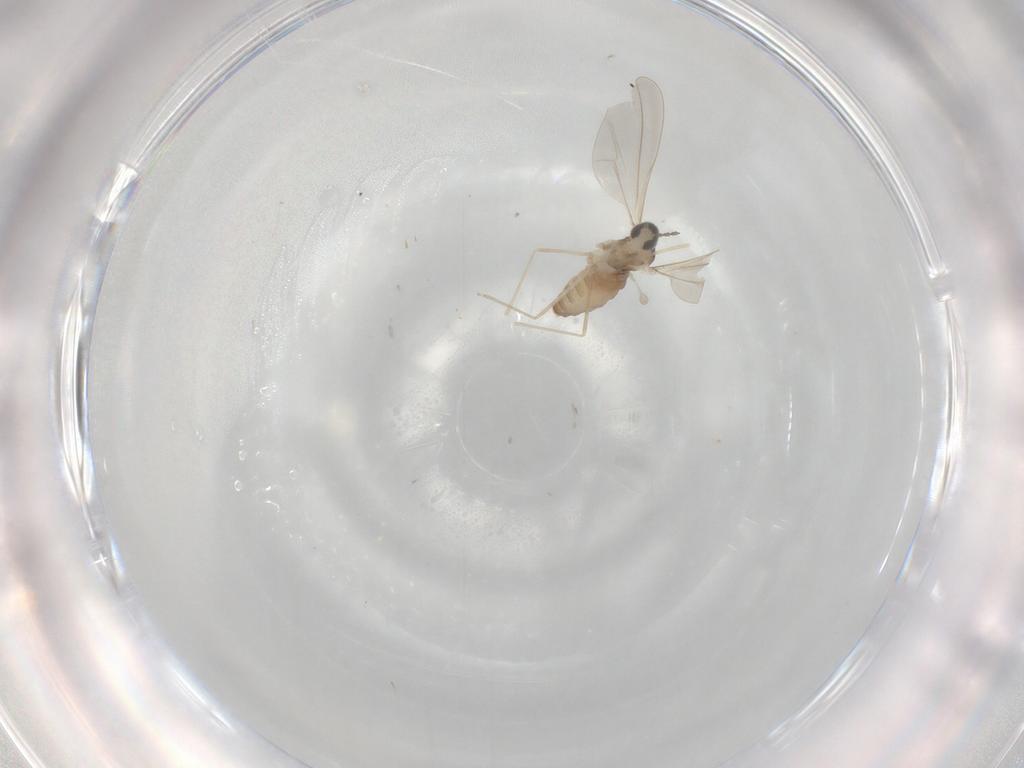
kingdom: Animalia
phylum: Arthropoda
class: Insecta
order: Diptera
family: Cecidomyiidae
